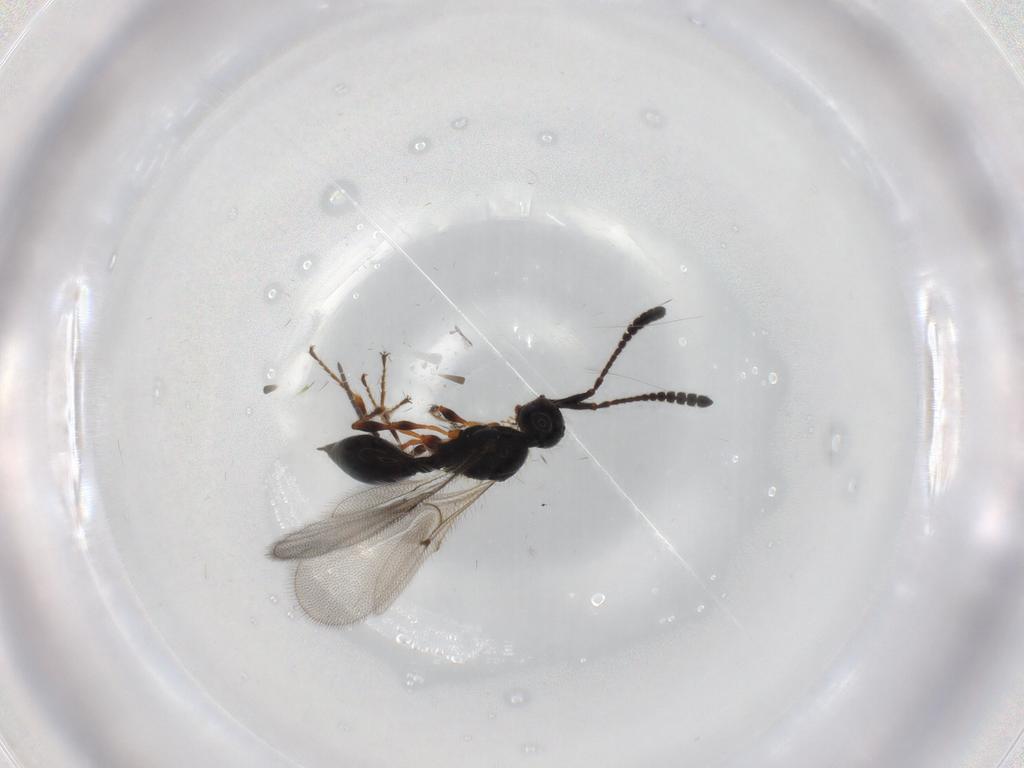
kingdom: Animalia
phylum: Arthropoda
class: Insecta
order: Hymenoptera
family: Diapriidae
